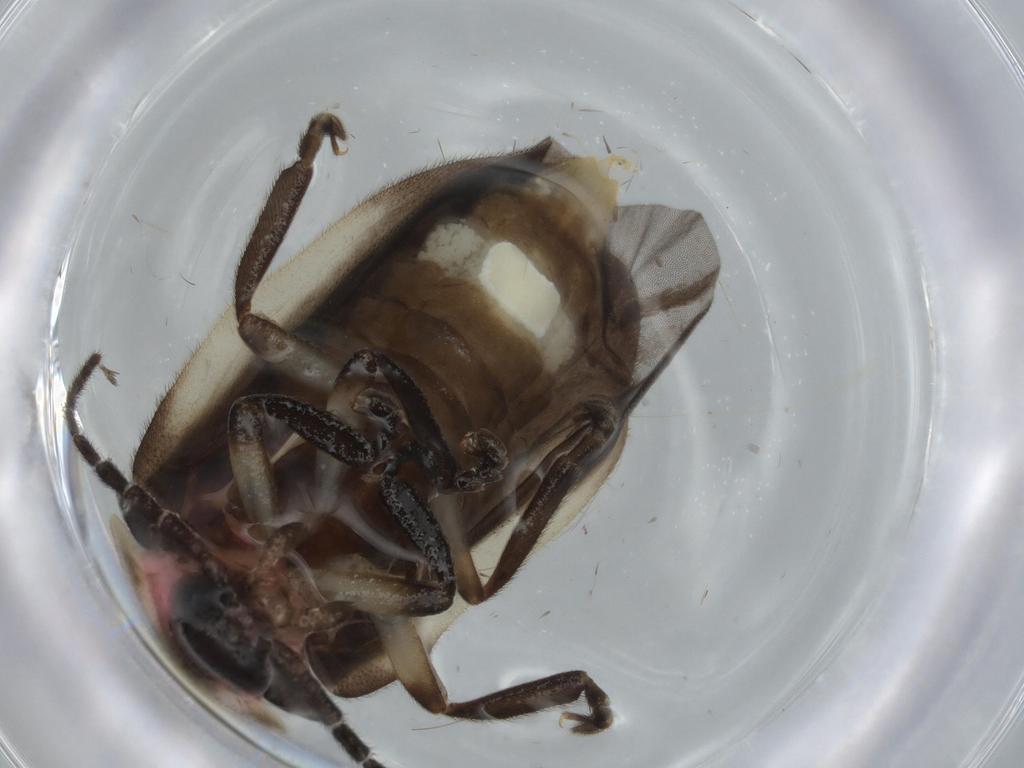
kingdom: Animalia
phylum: Arthropoda
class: Insecta
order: Coleoptera
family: Lampyridae
